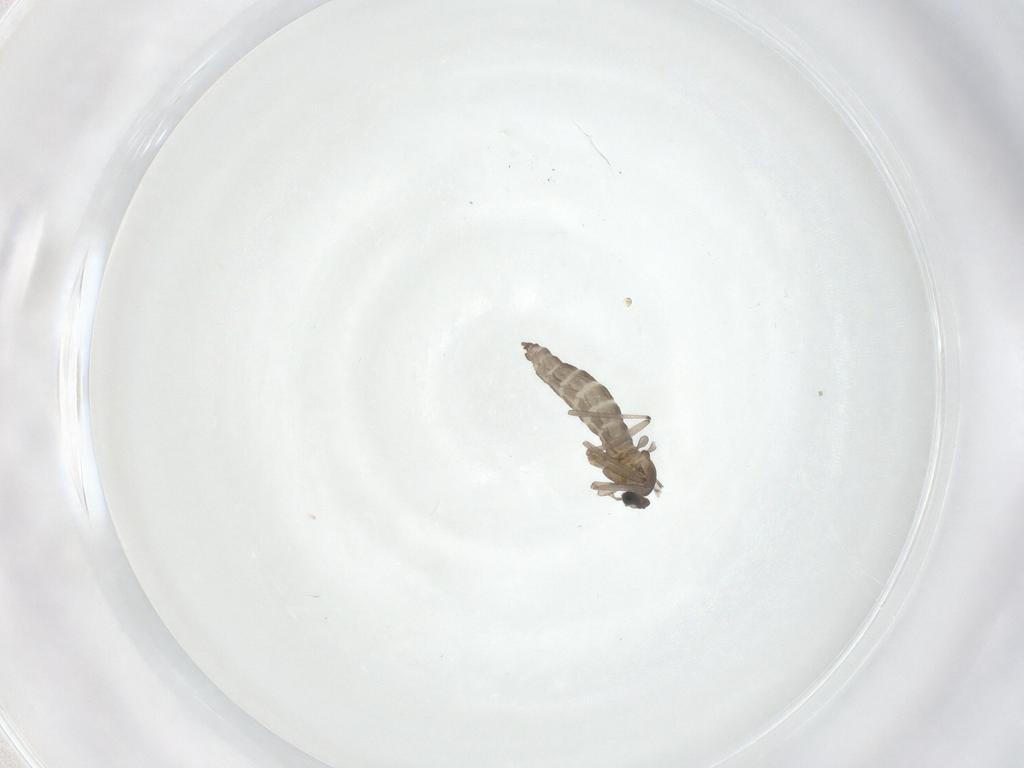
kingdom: Animalia
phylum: Arthropoda
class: Insecta
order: Diptera
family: Cecidomyiidae
